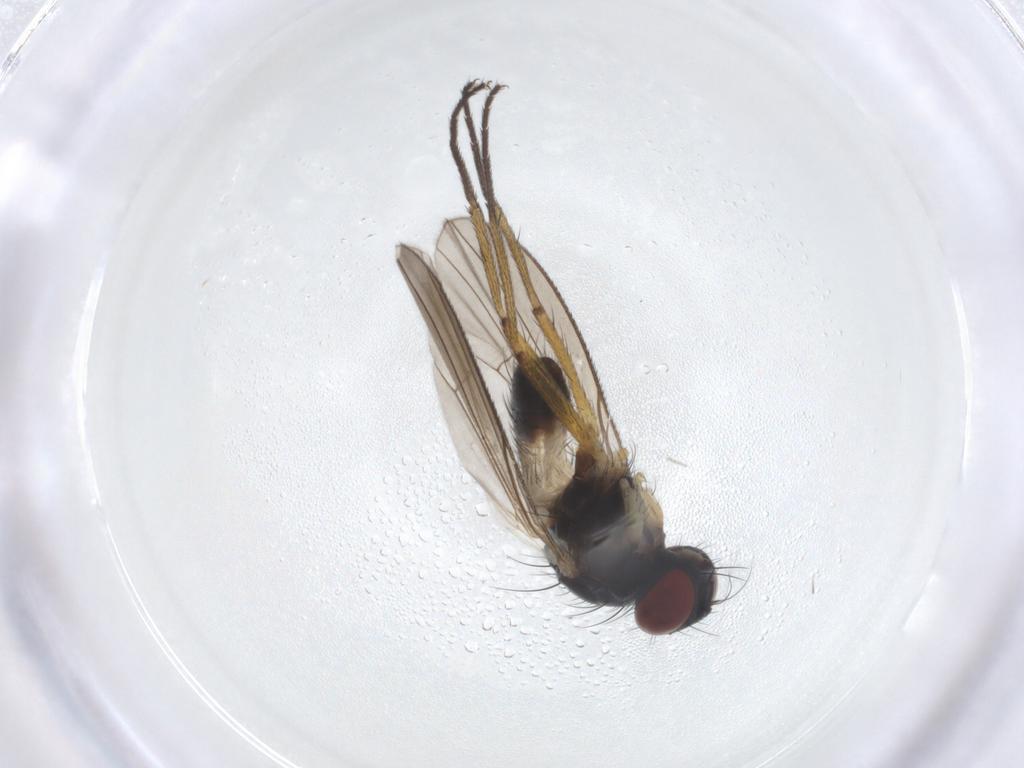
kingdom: Animalia
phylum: Arthropoda
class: Insecta
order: Diptera
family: Muscidae
